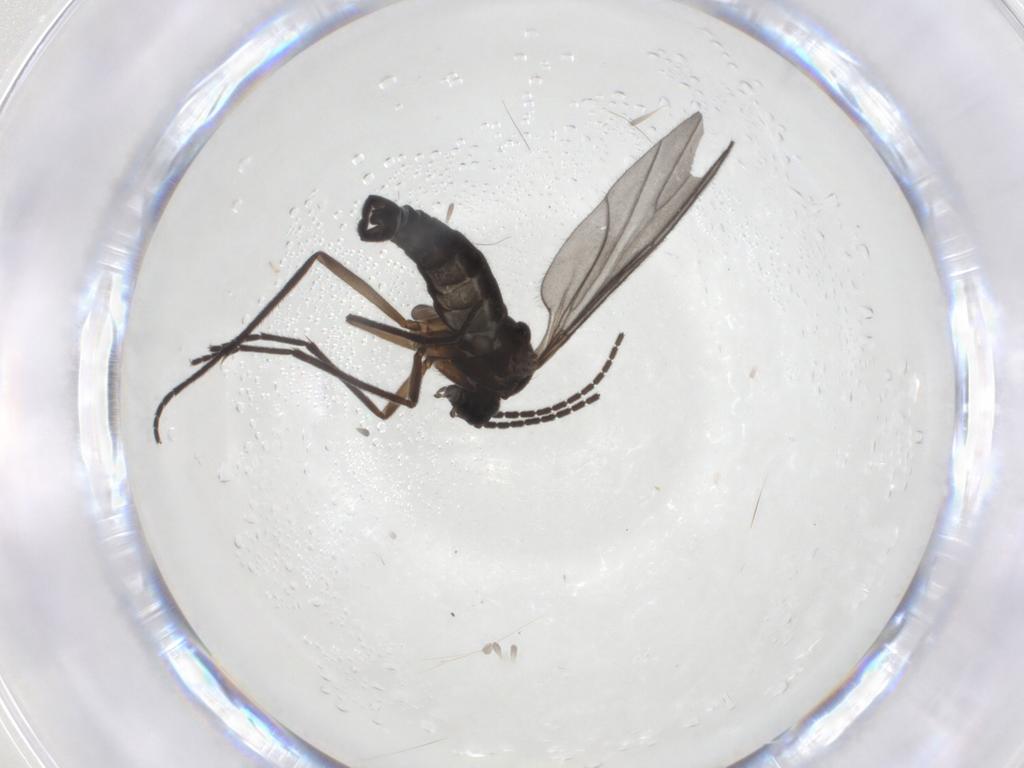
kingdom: Animalia
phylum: Arthropoda
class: Insecta
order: Diptera
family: Sciaridae
